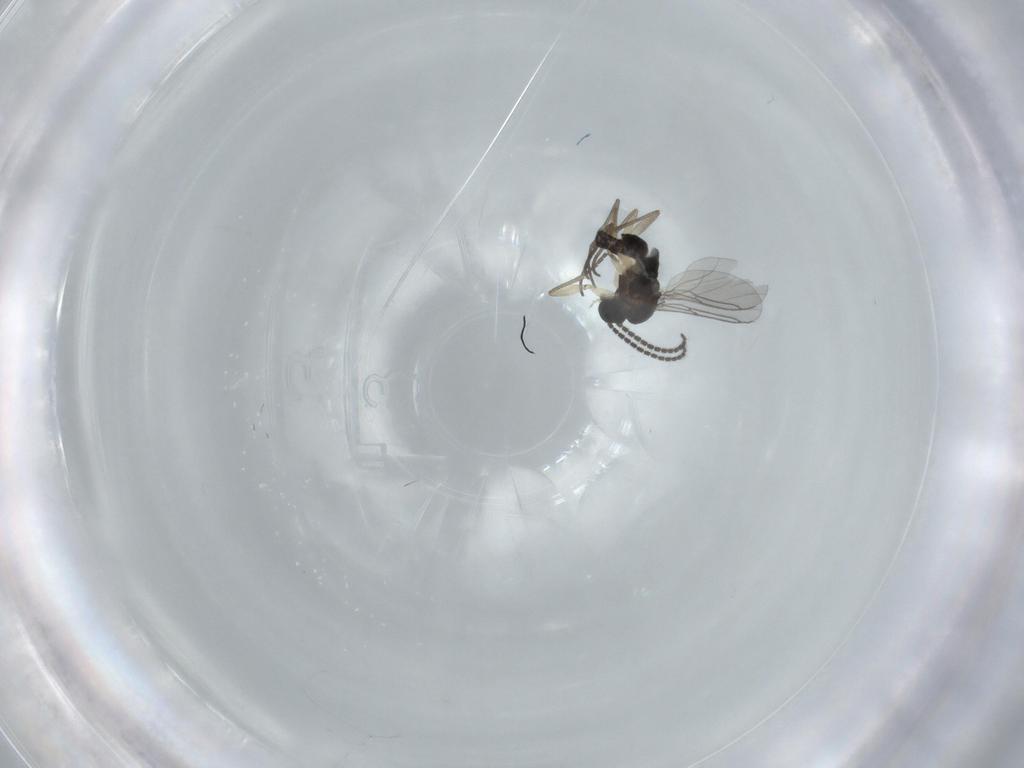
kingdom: Animalia
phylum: Arthropoda
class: Insecta
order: Diptera
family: Sciaridae
